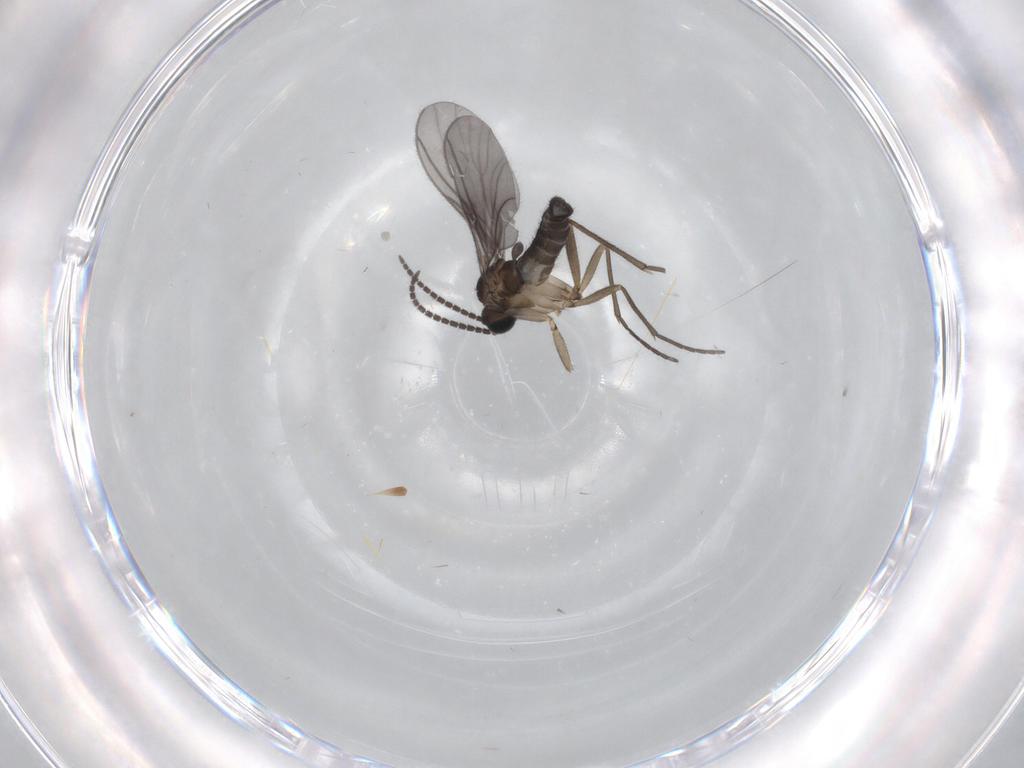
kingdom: Animalia
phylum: Arthropoda
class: Insecta
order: Diptera
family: Sciaridae
